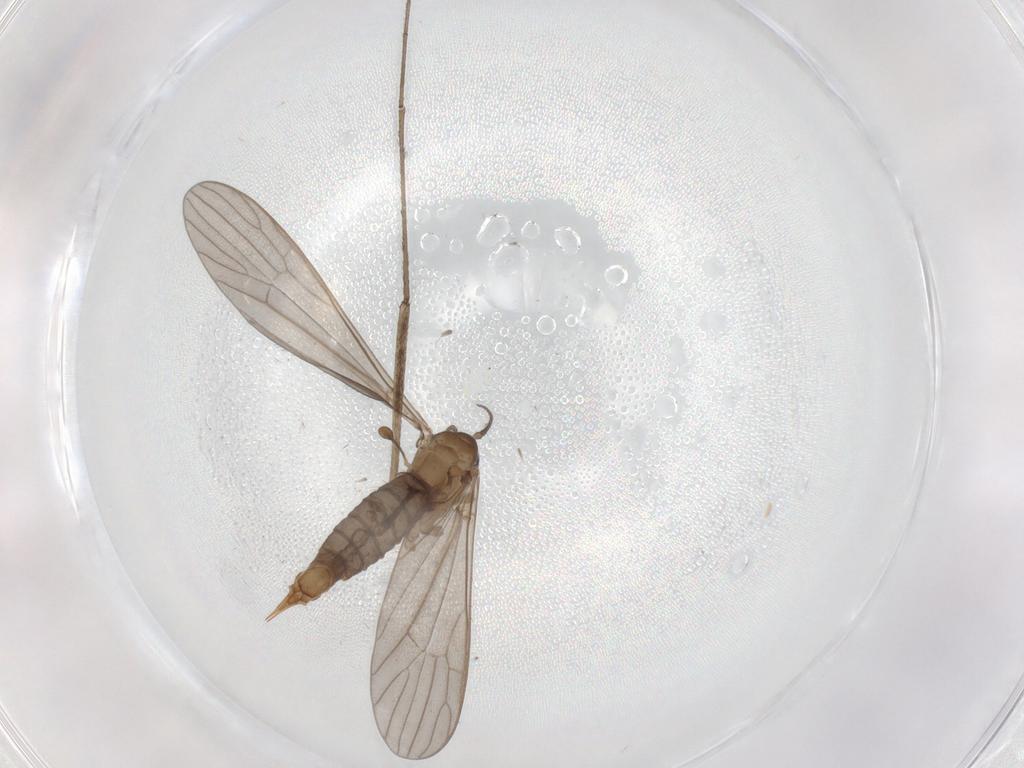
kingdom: Animalia
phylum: Arthropoda
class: Insecta
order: Diptera
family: Limoniidae
